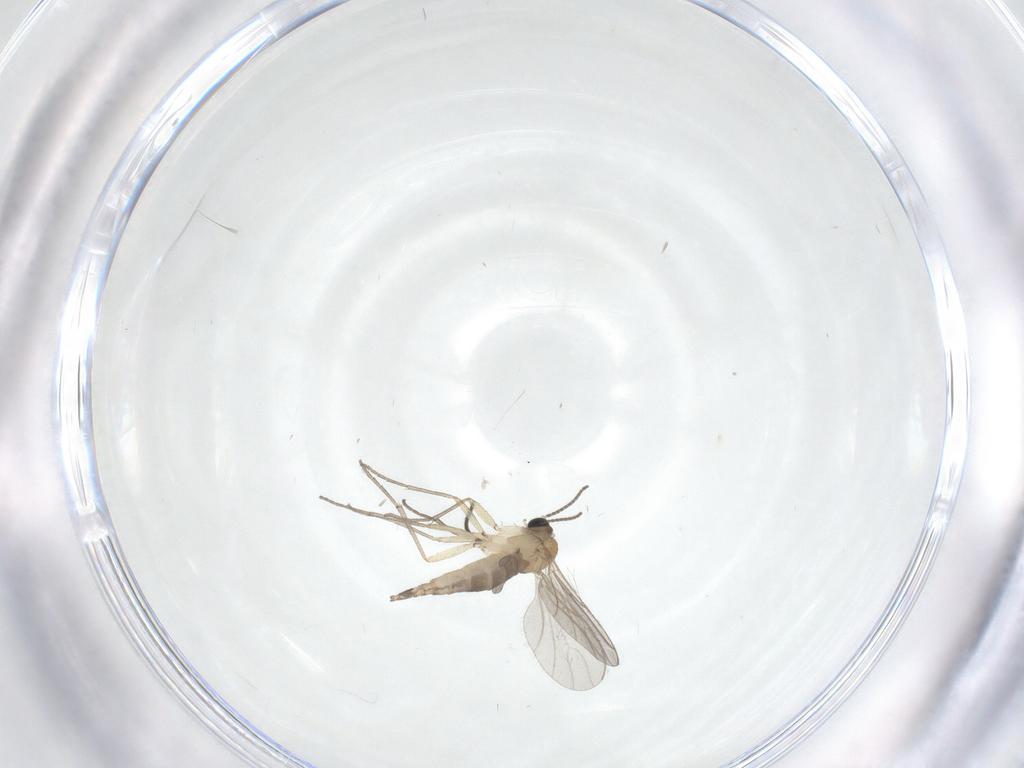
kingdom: Animalia
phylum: Arthropoda
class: Insecta
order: Diptera
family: Sciaridae
